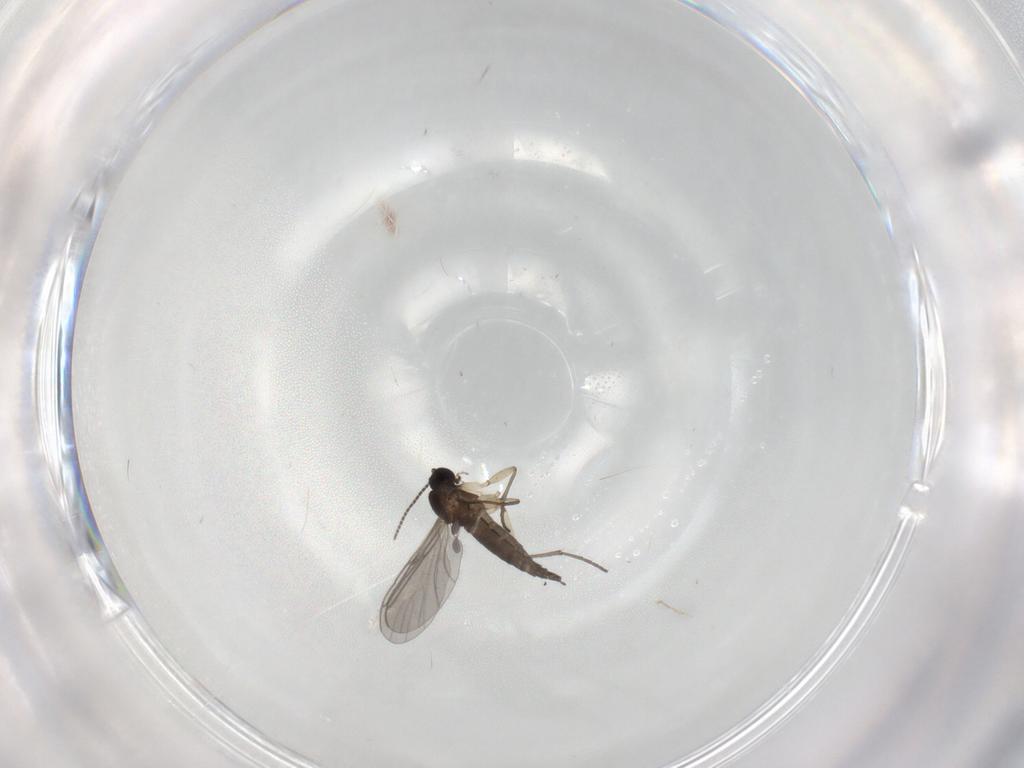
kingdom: Animalia
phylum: Arthropoda
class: Insecta
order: Diptera
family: Sciaridae
